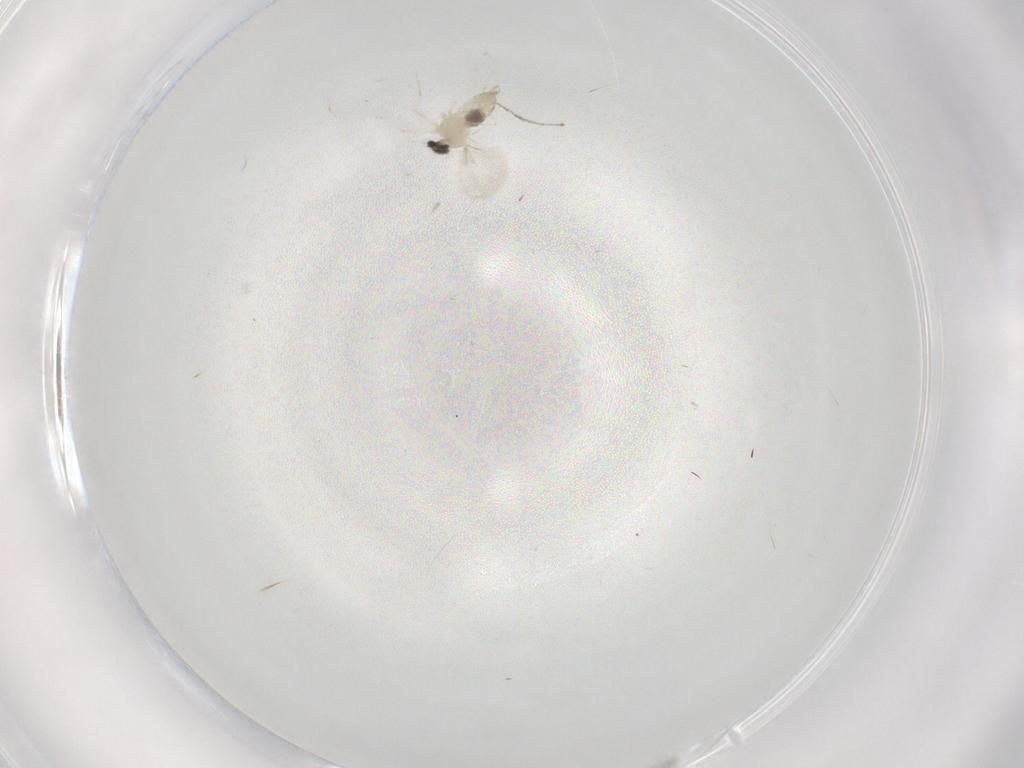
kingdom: Animalia
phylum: Arthropoda
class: Insecta
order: Diptera
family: Cecidomyiidae
